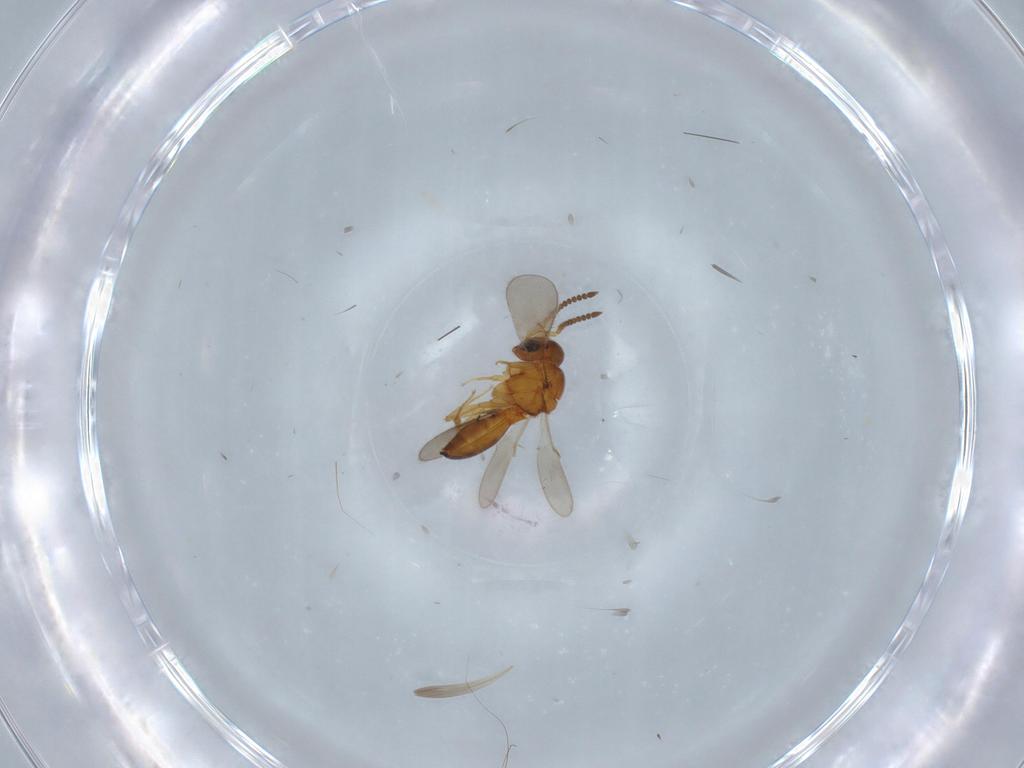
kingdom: Animalia
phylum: Arthropoda
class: Insecta
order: Hymenoptera
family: Scelionidae
